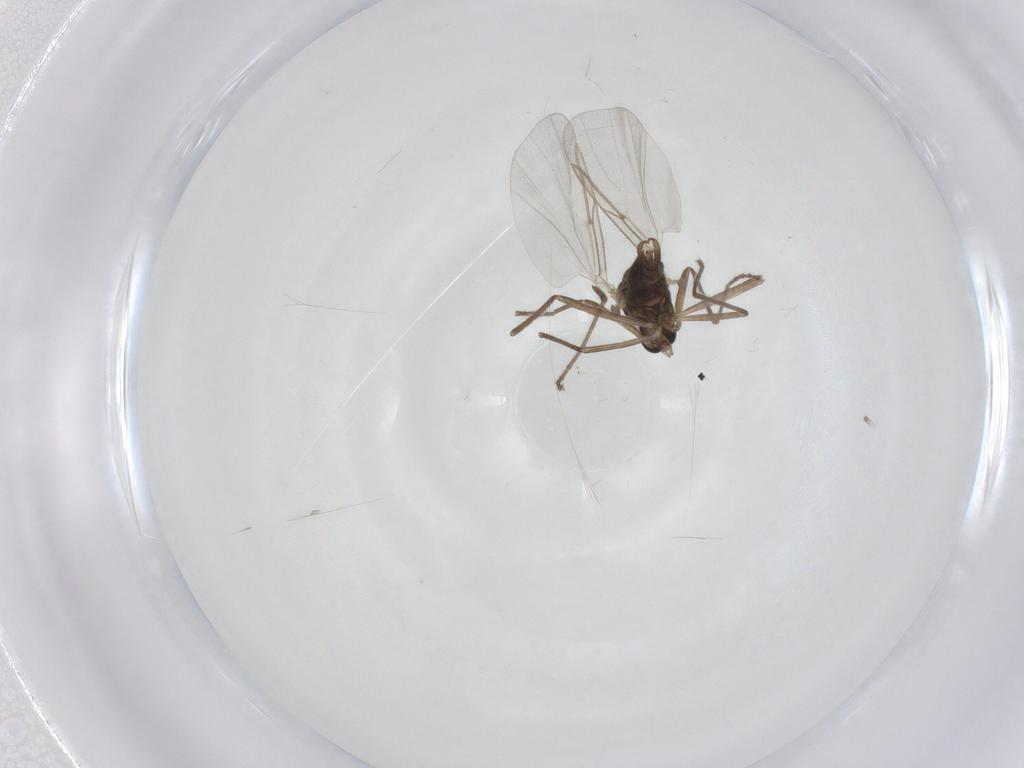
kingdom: Animalia
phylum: Arthropoda
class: Insecta
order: Diptera
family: Cecidomyiidae
